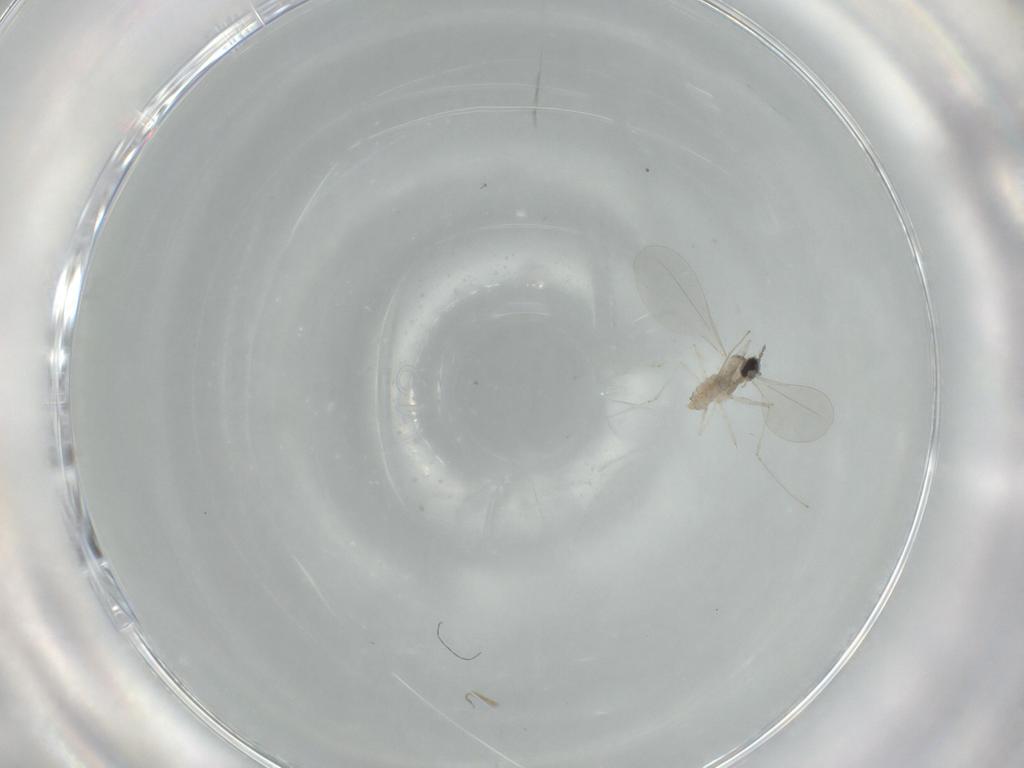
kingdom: Animalia
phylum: Arthropoda
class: Insecta
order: Diptera
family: Cecidomyiidae
